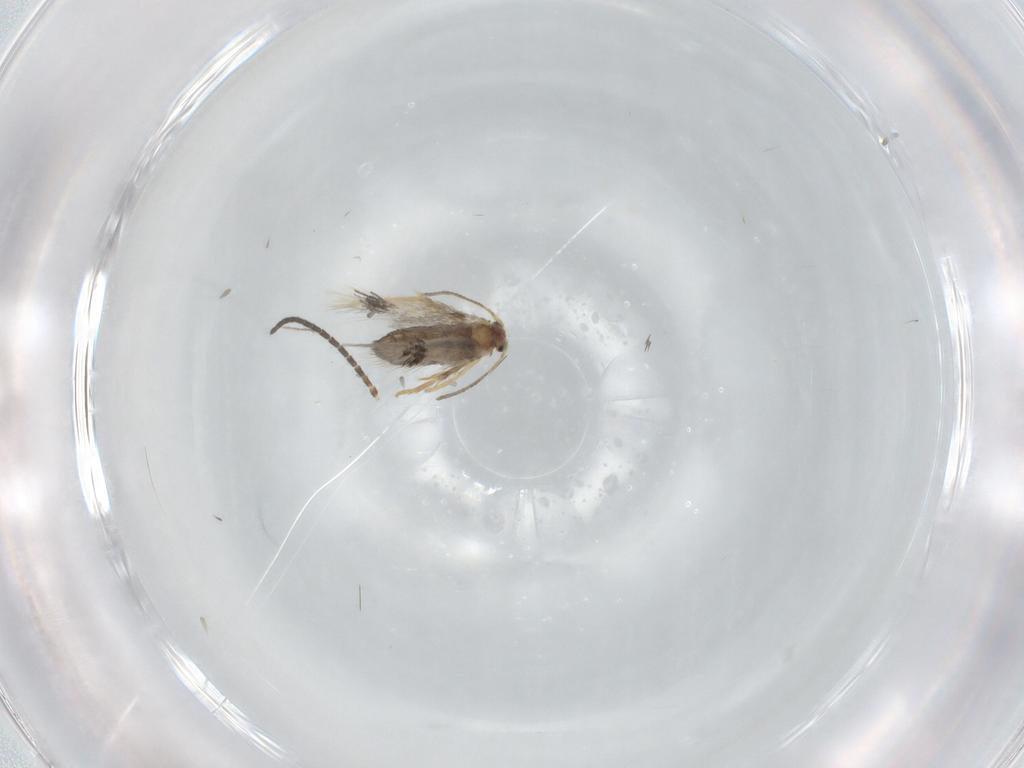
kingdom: Animalia
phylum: Arthropoda
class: Insecta
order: Lepidoptera
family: Nepticulidae
